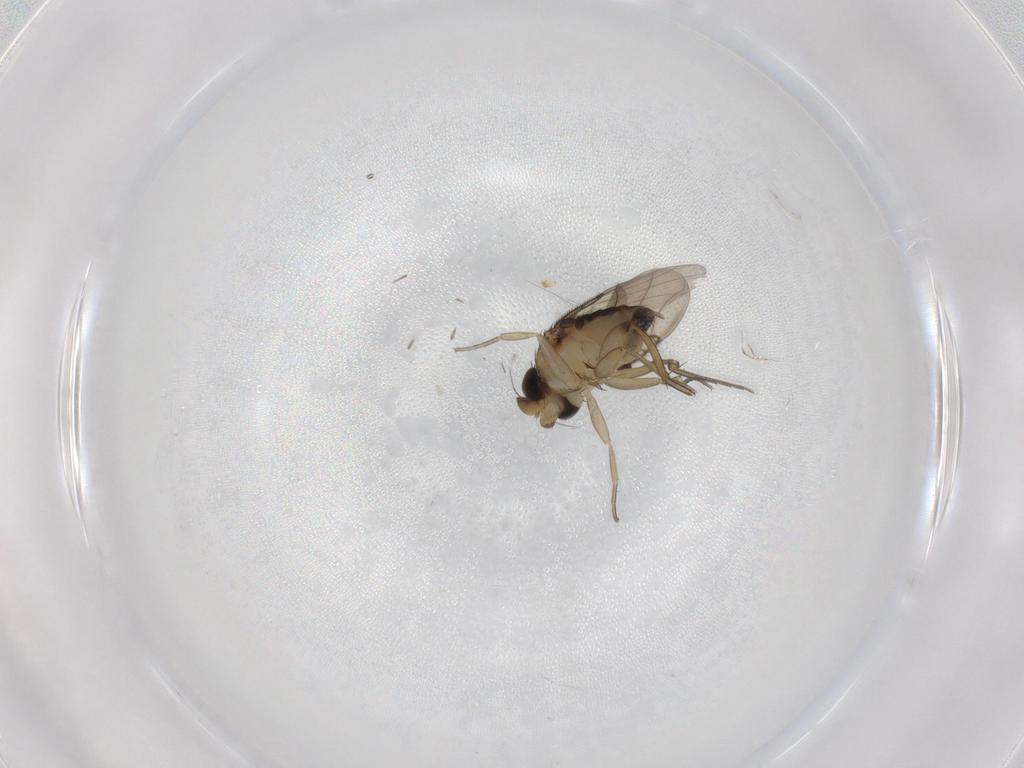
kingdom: Animalia
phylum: Arthropoda
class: Insecta
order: Diptera
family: Phoridae
